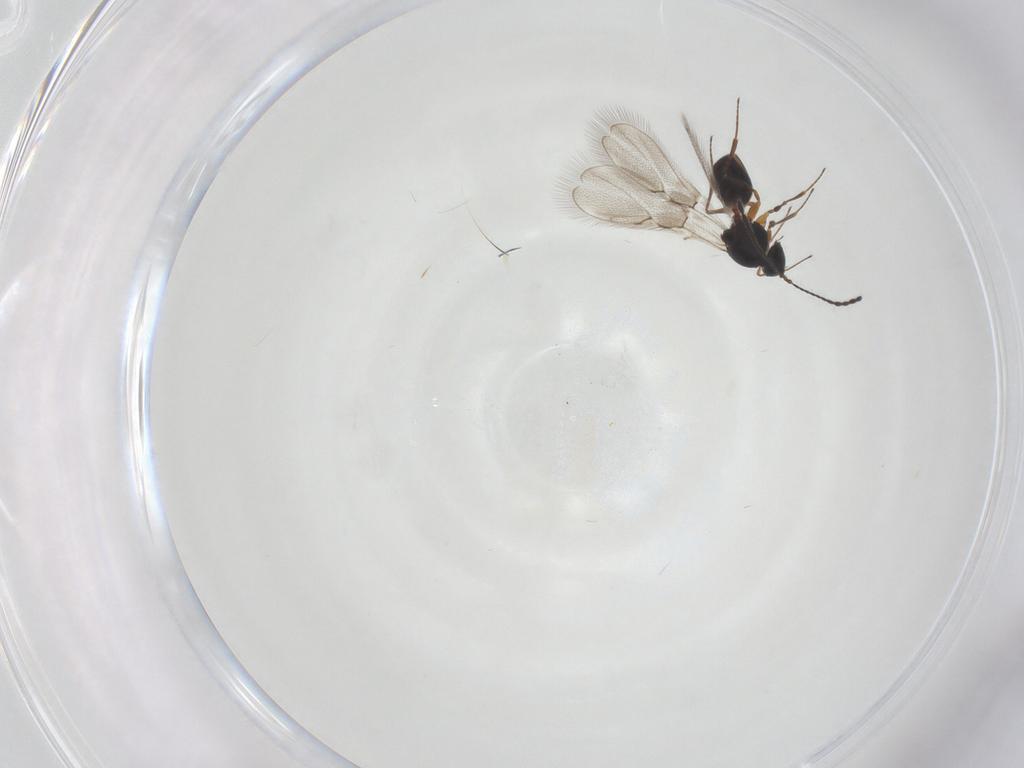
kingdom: Animalia
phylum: Arthropoda
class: Insecta
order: Hymenoptera
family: Figitidae
